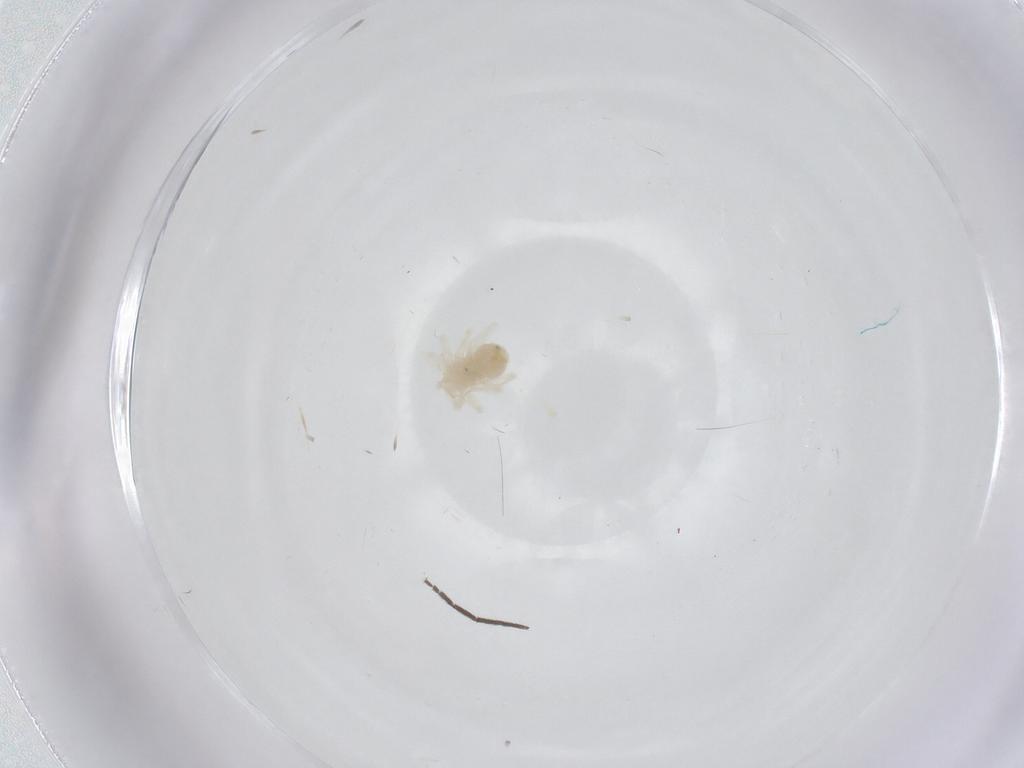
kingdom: Animalia
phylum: Arthropoda
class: Arachnida
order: Trombidiformes
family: Anystidae
